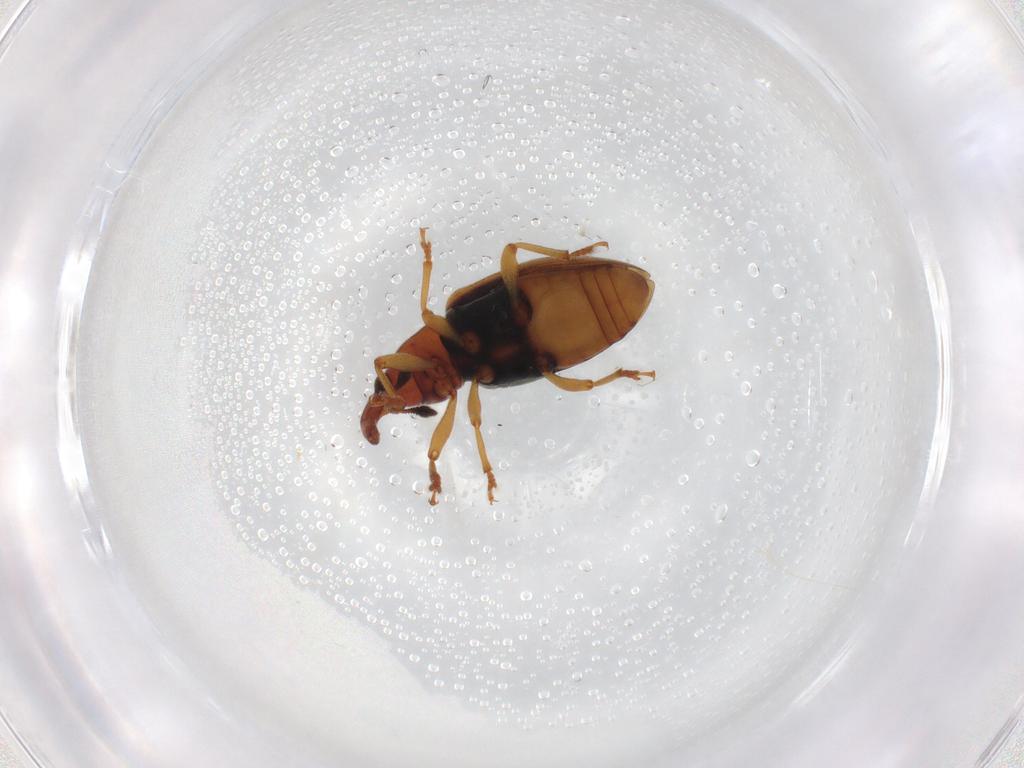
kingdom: Animalia
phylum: Arthropoda
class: Insecta
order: Coleoptera
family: Curculionidae
